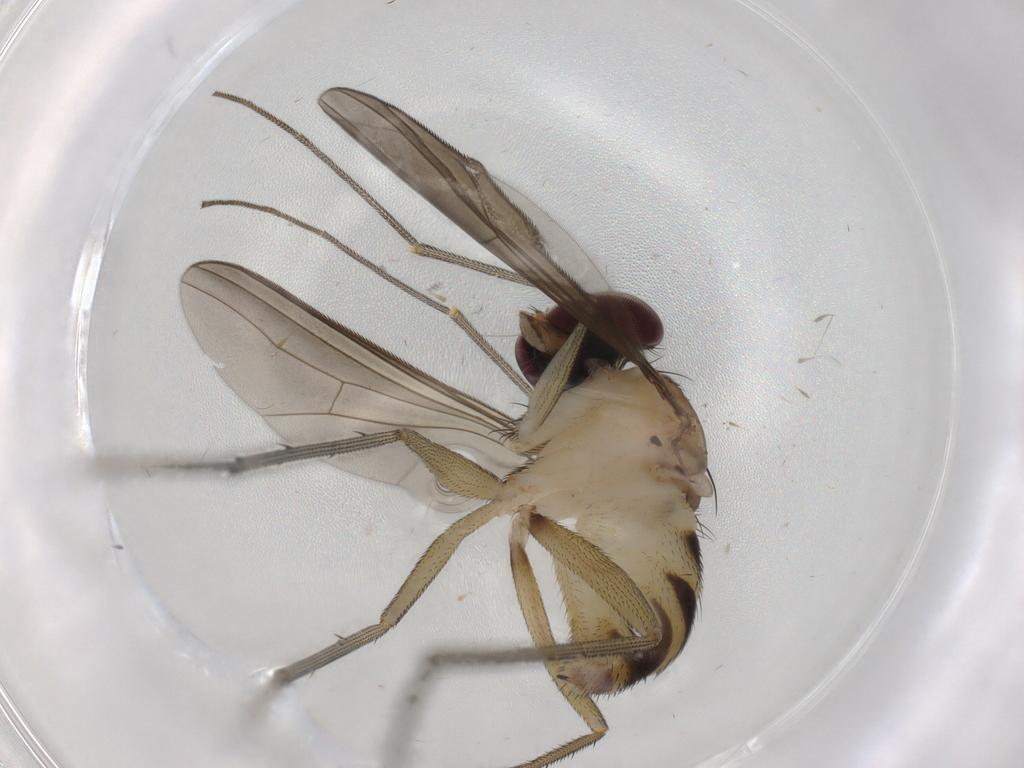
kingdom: Animalia
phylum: Arthropoda
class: Insecta
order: Diptera
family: Dolichopodidae
